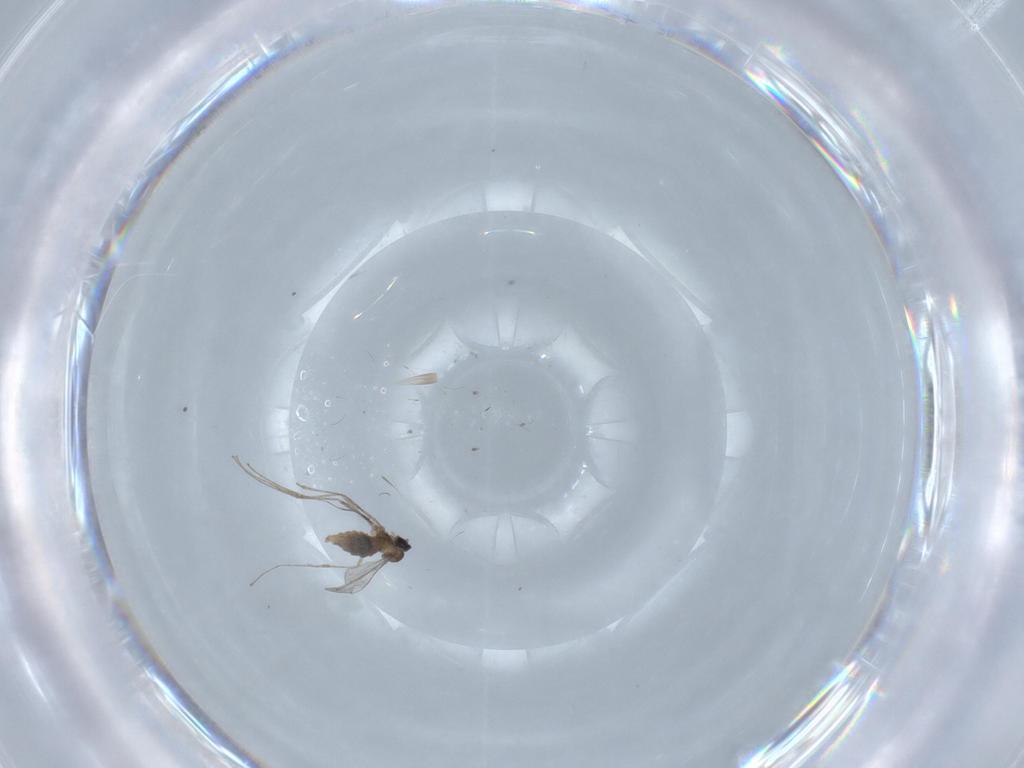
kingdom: Animalia
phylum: Arthropoda
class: Insecta
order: Diptera
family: Cecidomyiidae
